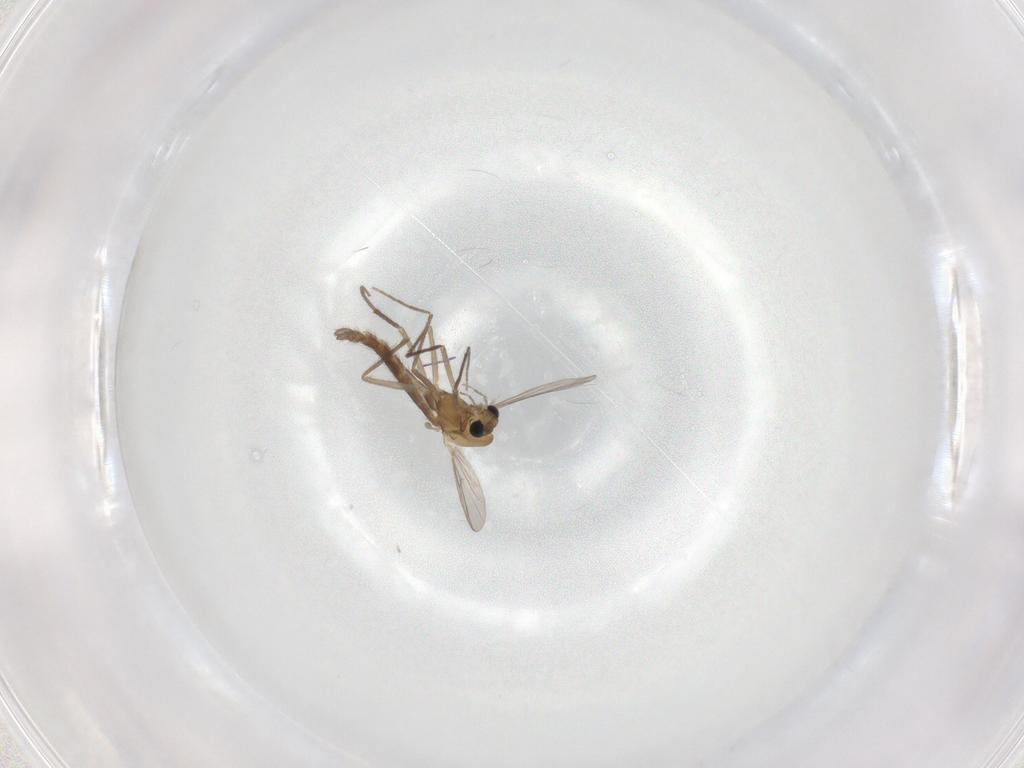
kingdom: Animalia
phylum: Arthropoda
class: Insecta
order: Diptera
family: Chironomidae
